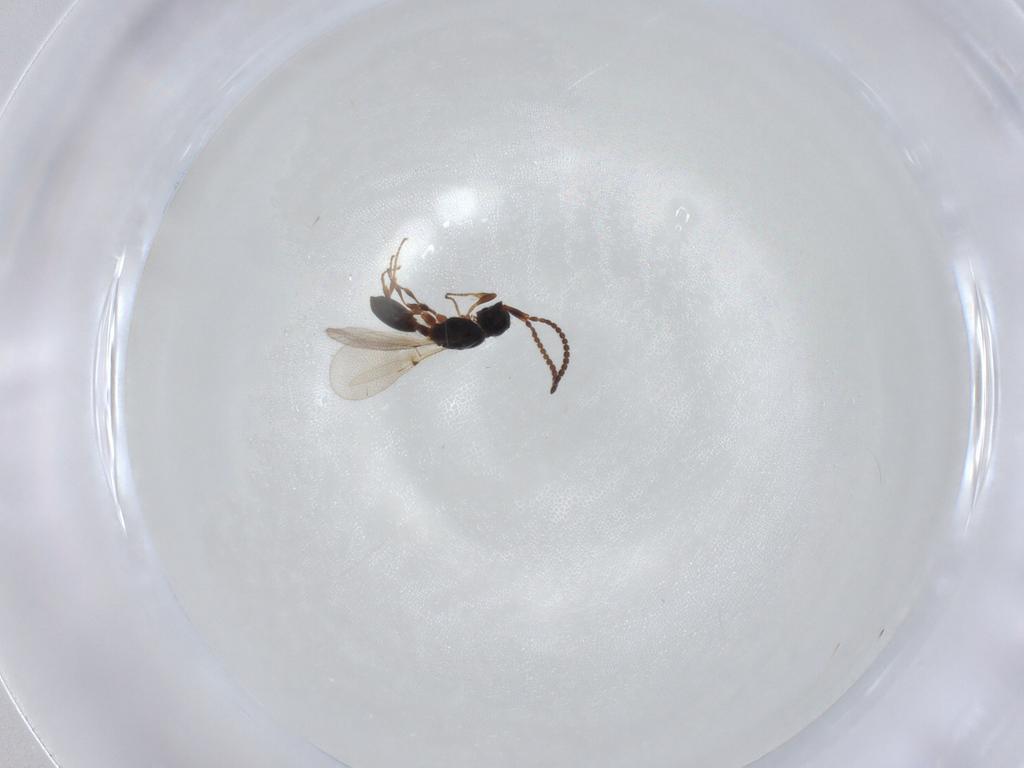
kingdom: Animalia
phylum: Arthropoda
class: Insecta
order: Hymenoptera
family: Diapriidae
